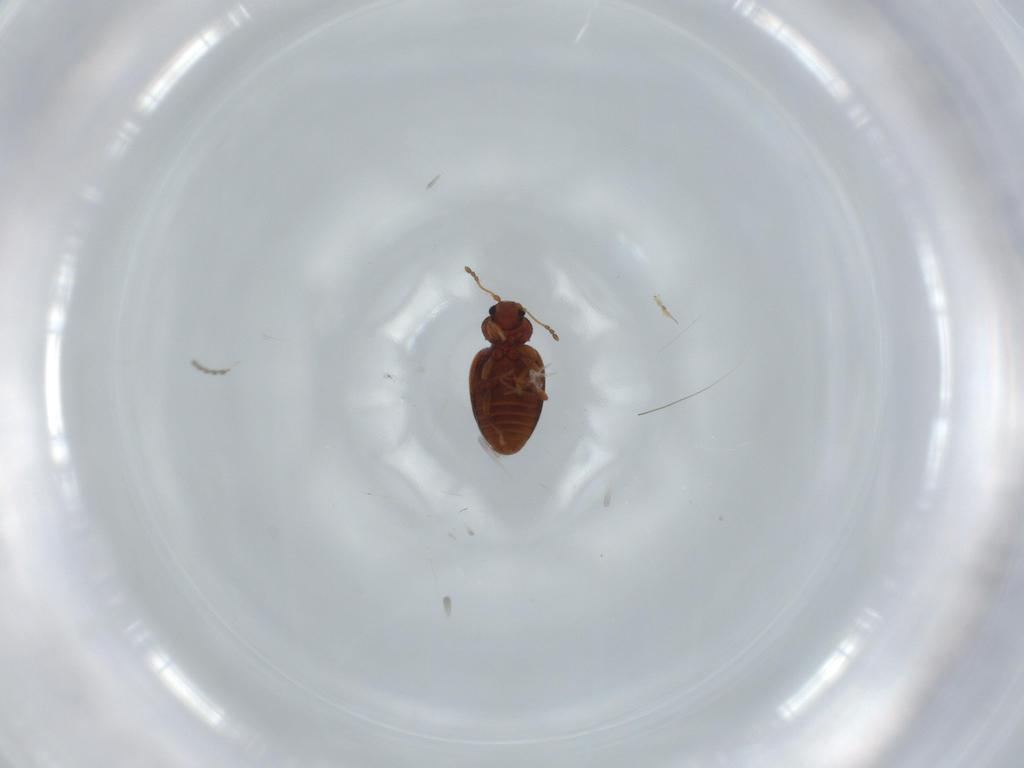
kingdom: Animalia
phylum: Arthropoda
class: Insecta
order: Coleoptera
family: Latridiidae
